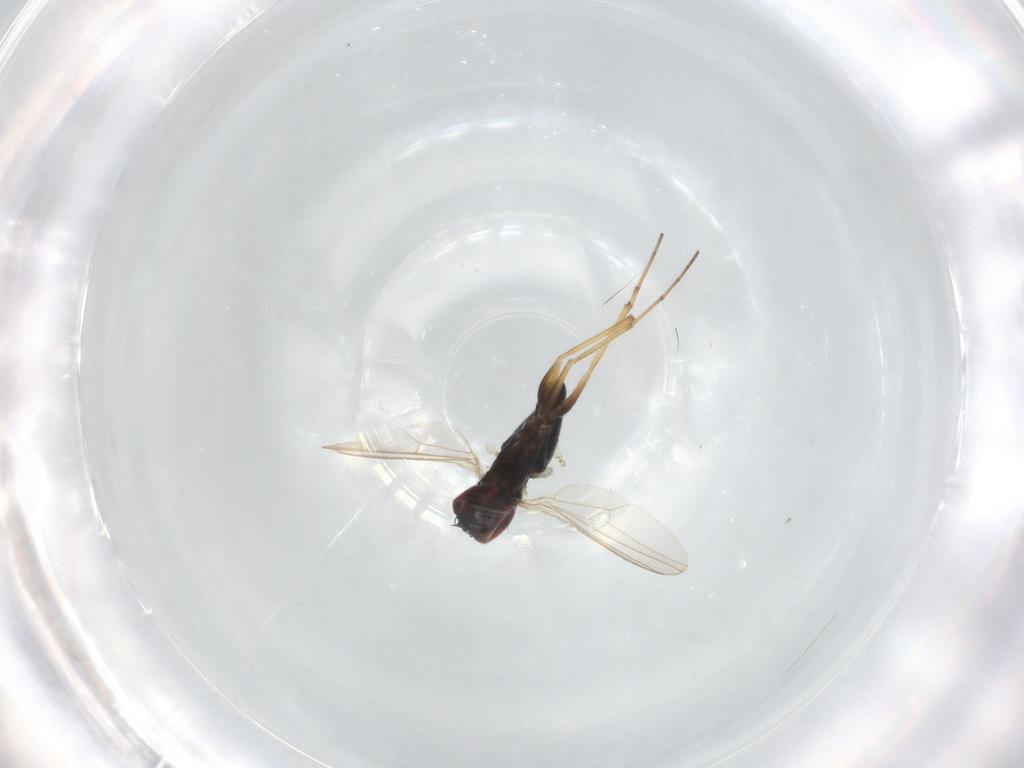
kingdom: Animalia
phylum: Arthropoda
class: Insecta
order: Diptera
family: Dolichopodidae
